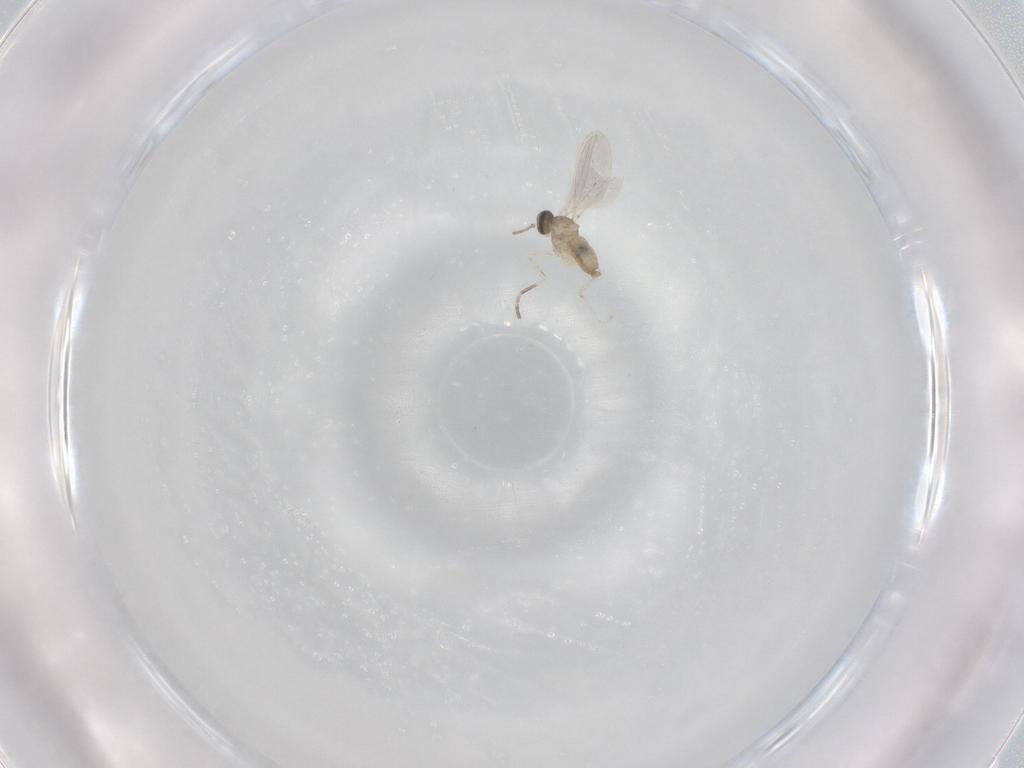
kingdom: Animalia
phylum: Arthropoda
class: Insecta
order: Diptera
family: Cecidomyiidae
